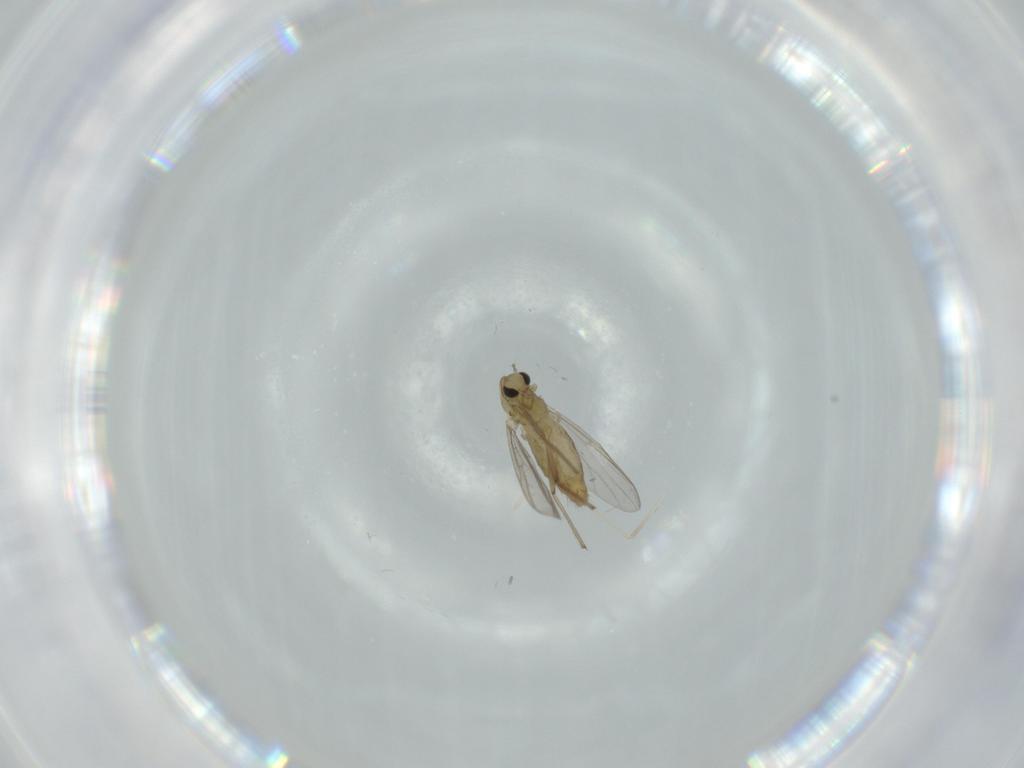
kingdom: Animalia
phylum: Arthropoda
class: Insecta
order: Diptera
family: Chironomidae
